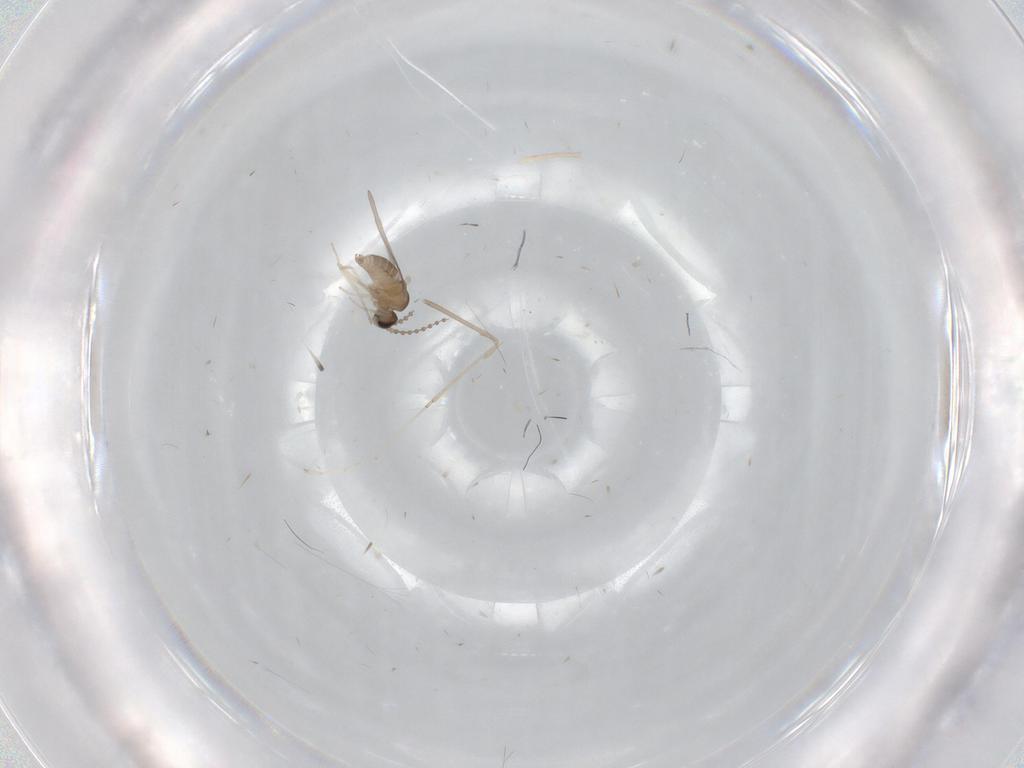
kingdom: Animalia
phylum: Arthropoda
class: Insecta
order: Diptera
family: Cecidomyiidae
